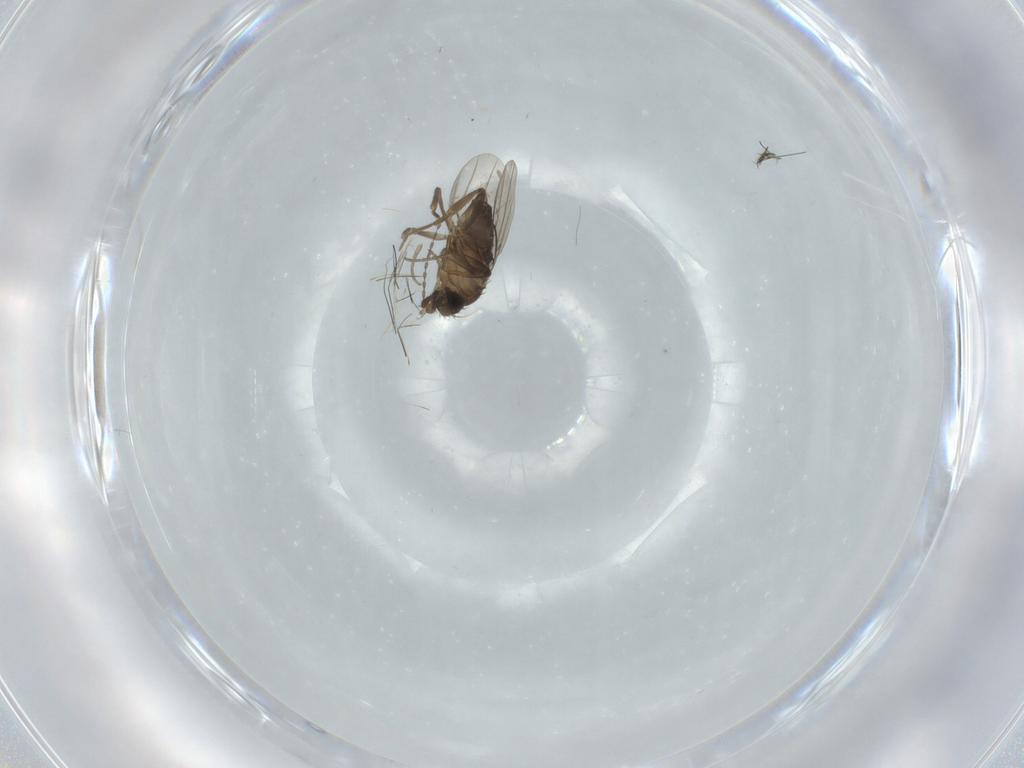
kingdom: Animalia
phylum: Arthropoda
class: Insecta
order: Diptera
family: Phoridae
